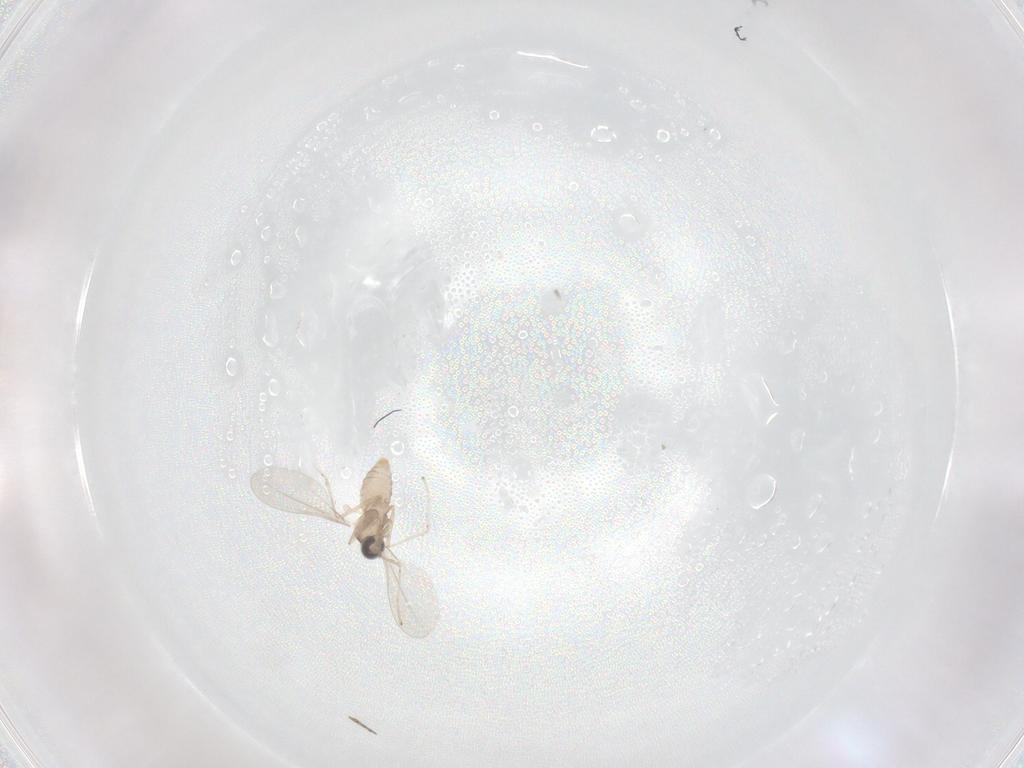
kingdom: Animalia
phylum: Arthropoda
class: Insecta
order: Diptera
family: Cecidomyiidae
